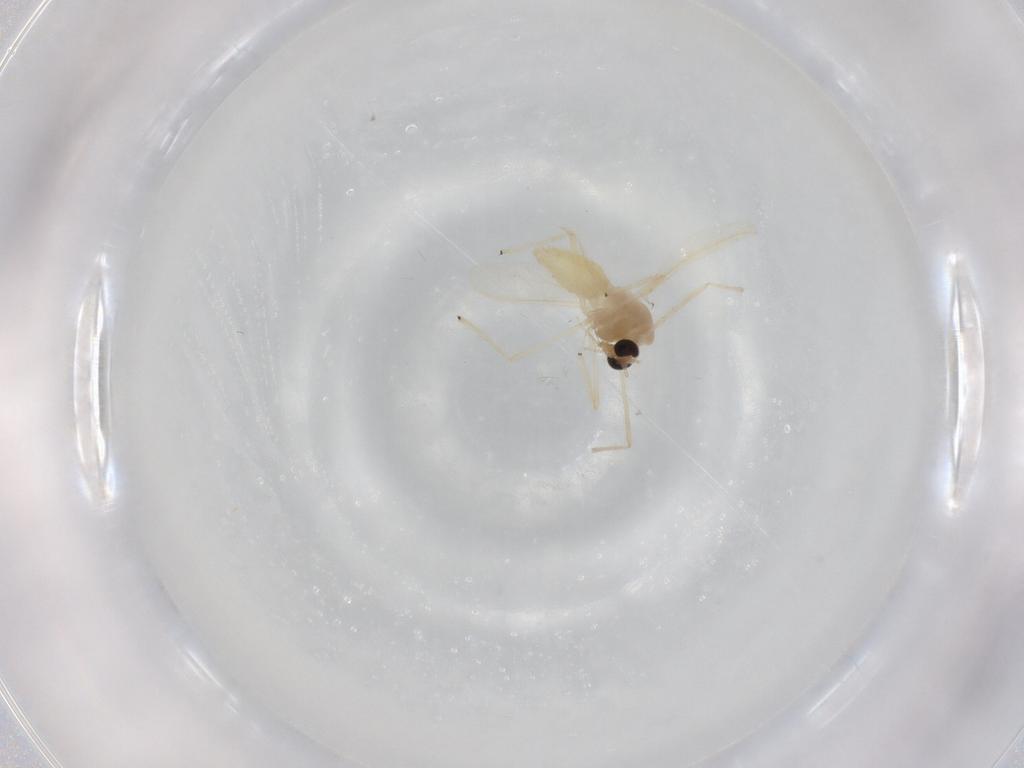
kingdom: Animalia
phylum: Arthropoda
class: Insecta
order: Diptera
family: Chironomidae
